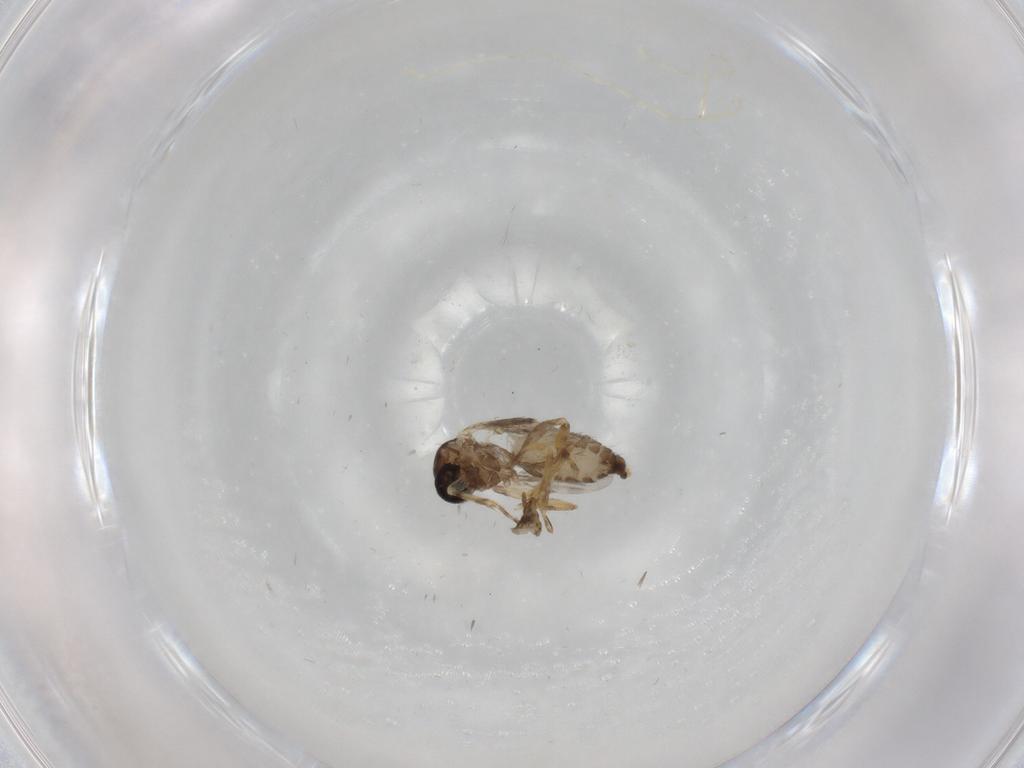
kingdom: Animalia
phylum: Arthropoda
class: Insecta
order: Diptera
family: Ceratopogonidae
